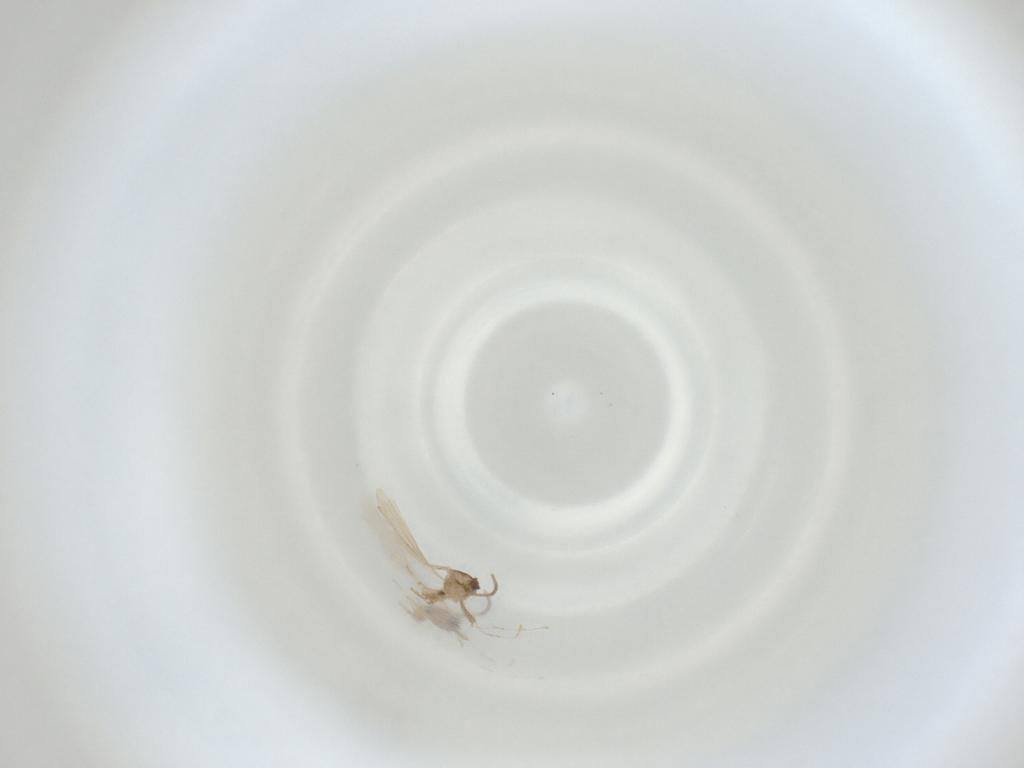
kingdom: Animalia
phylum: Arthropoda
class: Insecta
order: Diptera
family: Cecidomyiidae
